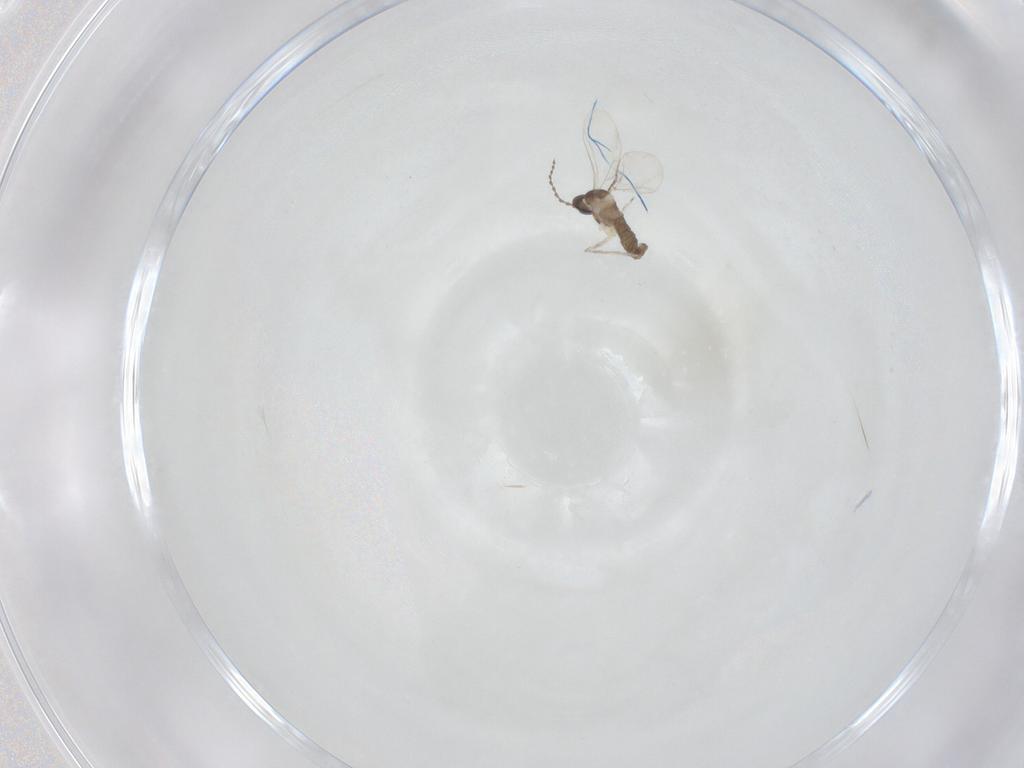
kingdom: Animalia
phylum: Arthropoda
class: Insecta
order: Diptera
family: Cecidomyiidae
